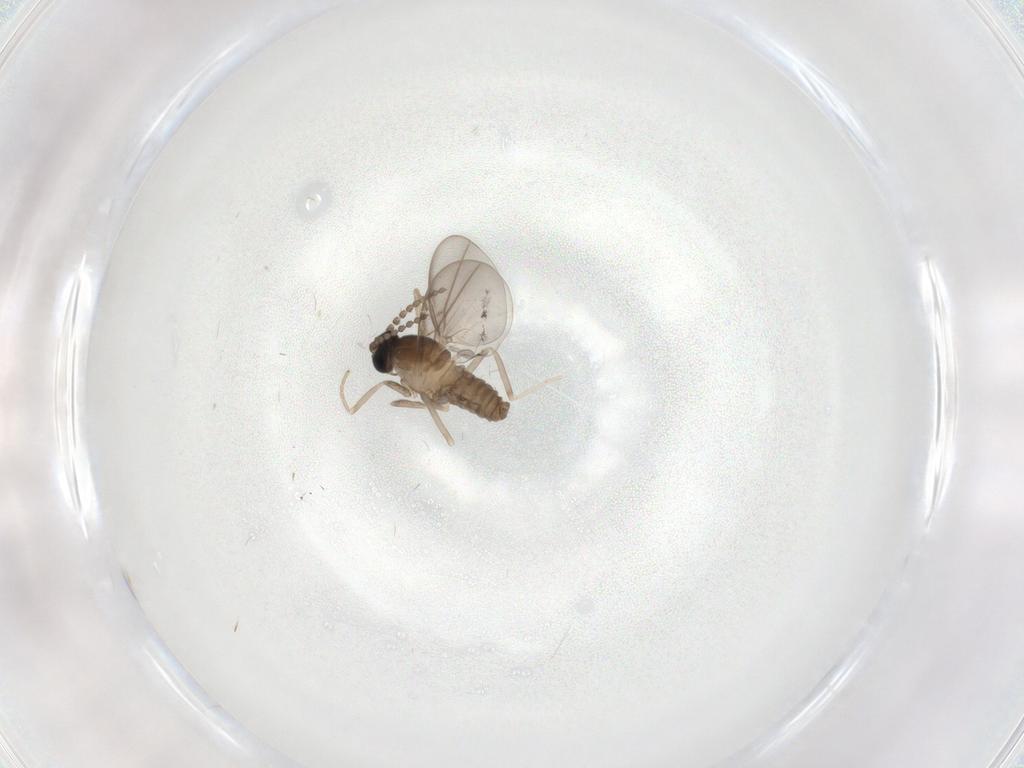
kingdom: Animalia
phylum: Arthropoda
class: Insecta
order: Diptera
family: Cecidomyiidae
